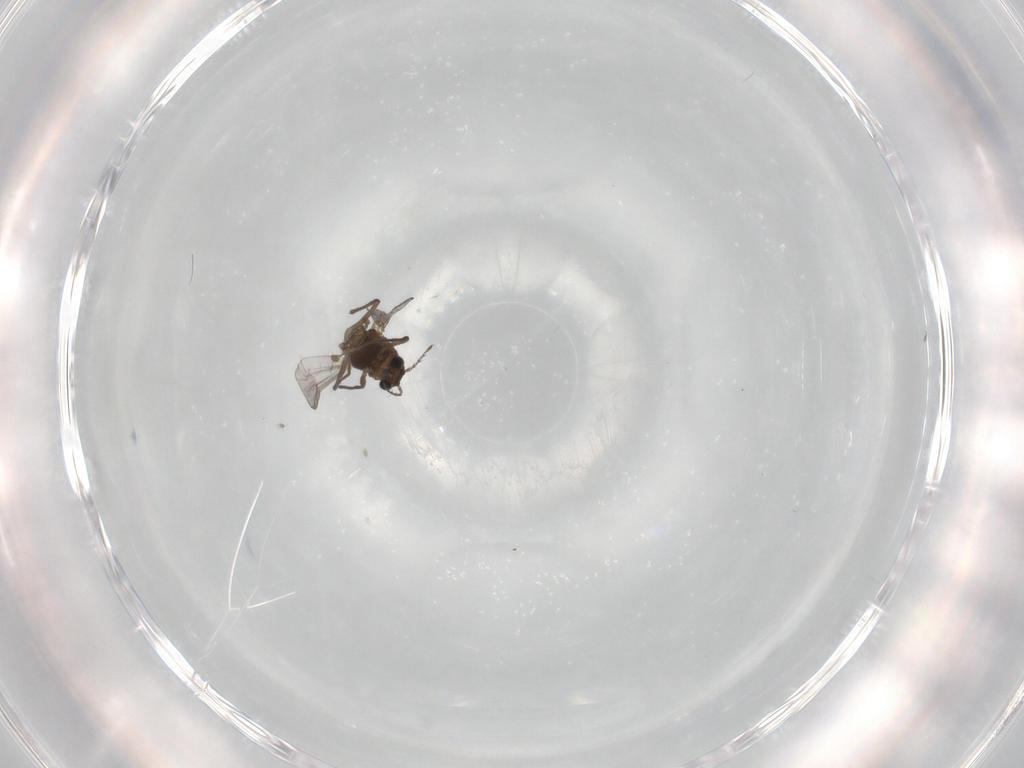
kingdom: Animalia
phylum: Arthropoda
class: Insecta
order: Diptera
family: Chironomidae
